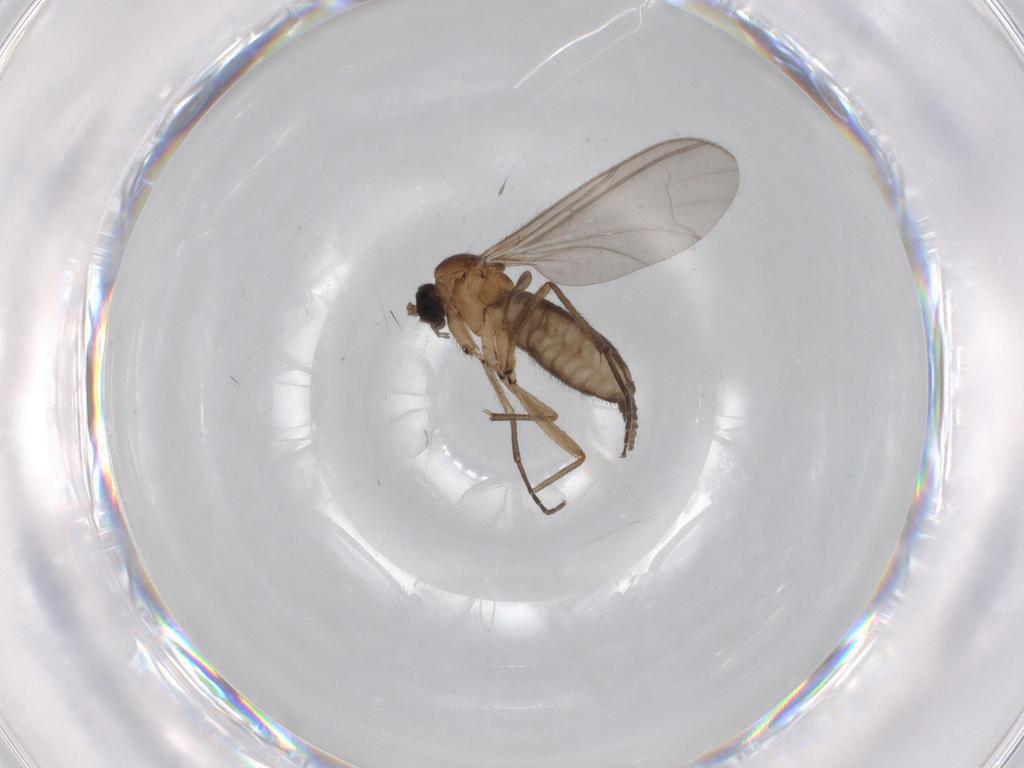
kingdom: Animalia
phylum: Arthropoda
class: Insecta
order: Diptera
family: Sciaridae
